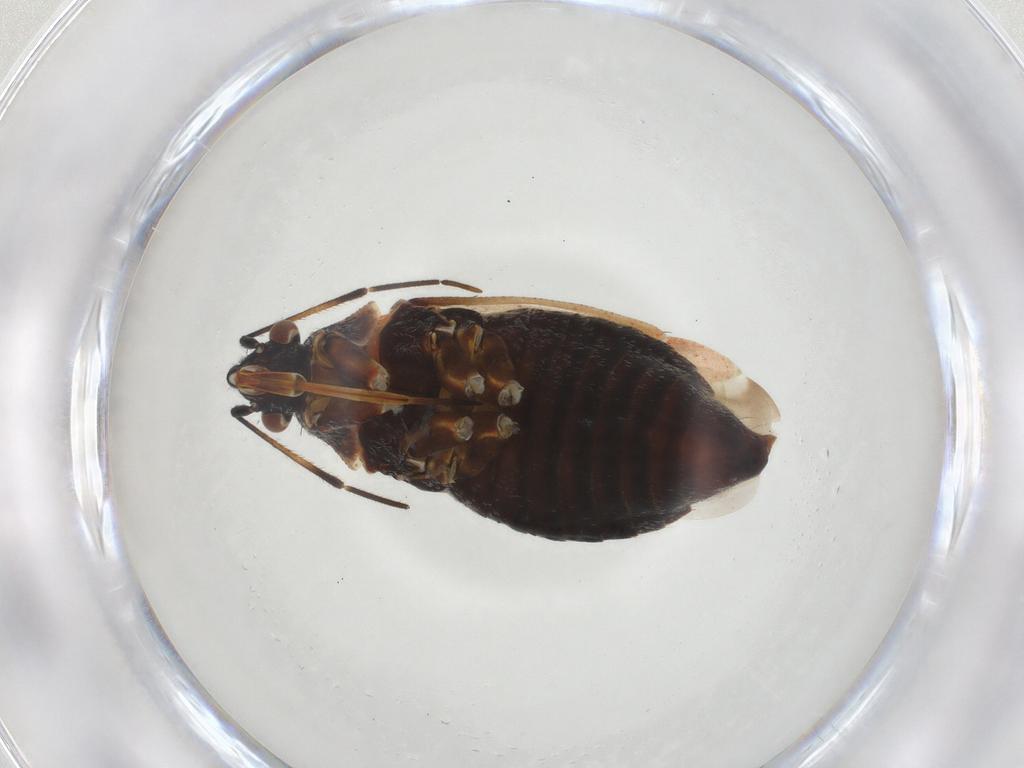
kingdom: Animalia
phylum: Arthropoda
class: Insecta
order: Hemiptera
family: Miridae
